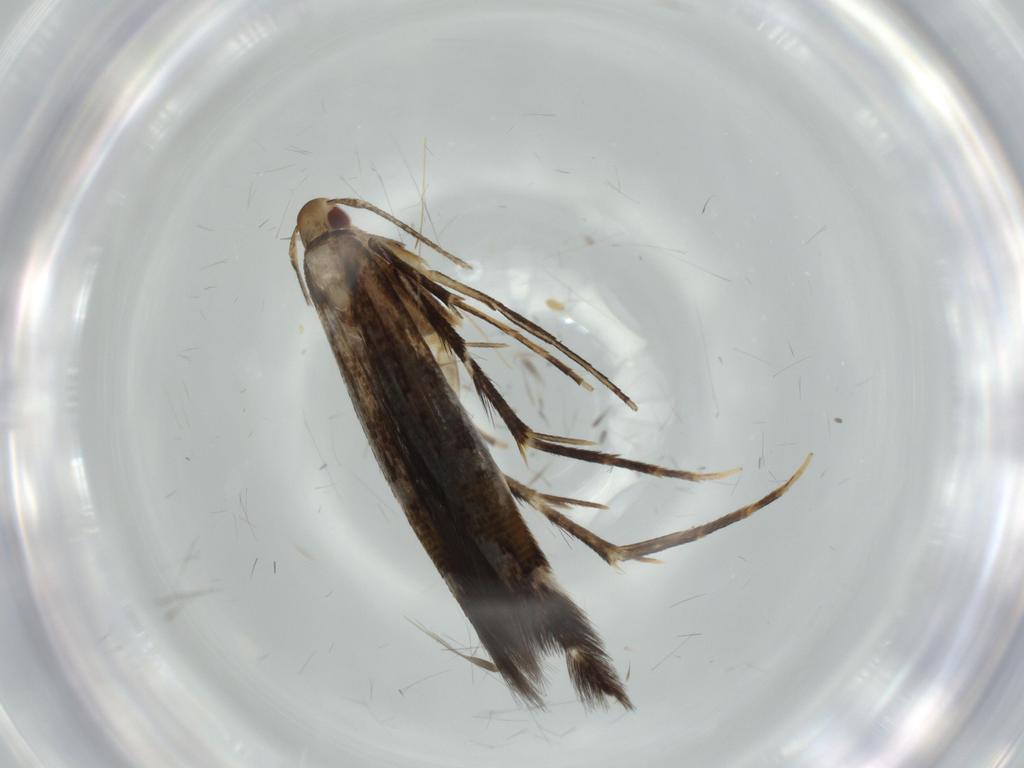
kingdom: Animalia
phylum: Arthropoda
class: Insecta
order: Lepidoptera
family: Cosmopterigidae
